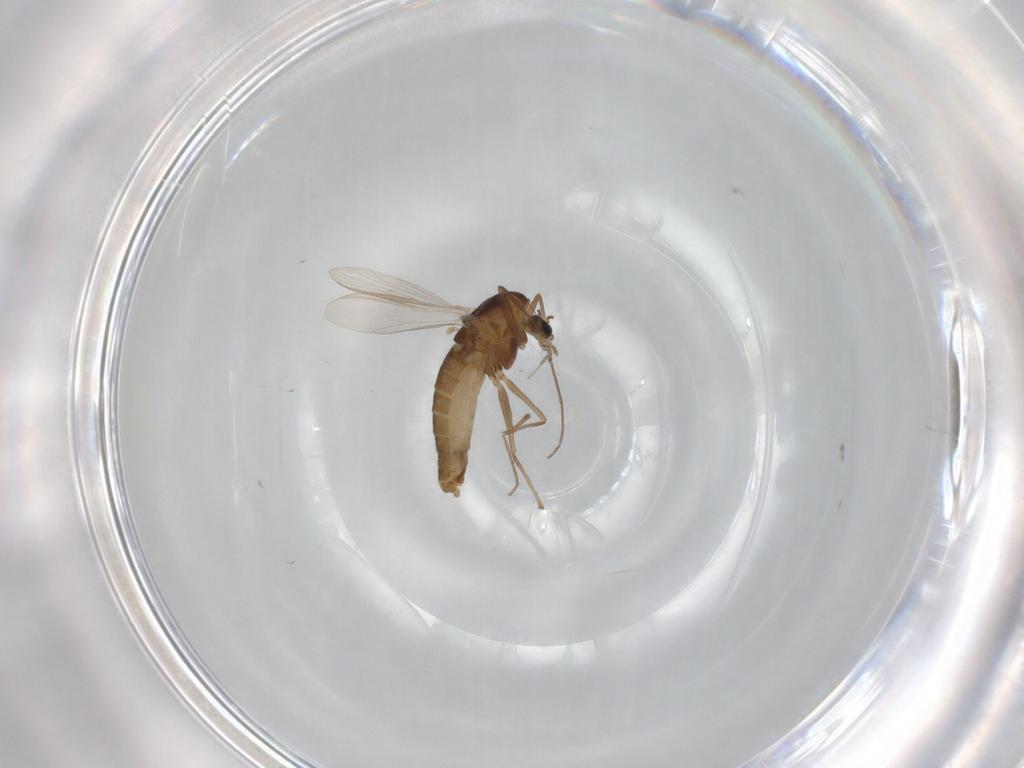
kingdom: Animalia
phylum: Arthropoda
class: Insecta
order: Diptera
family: Chironomidae
